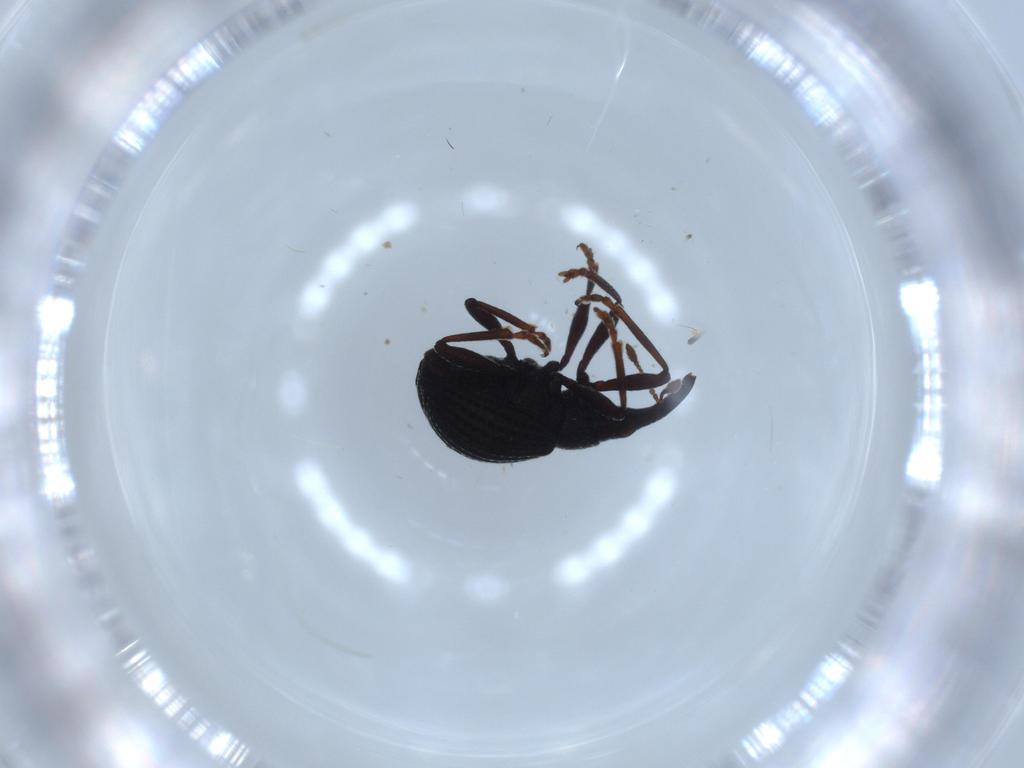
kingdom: Animalia
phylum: Arthropoda
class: Insecta
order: Coleoptera
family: Brentidae
